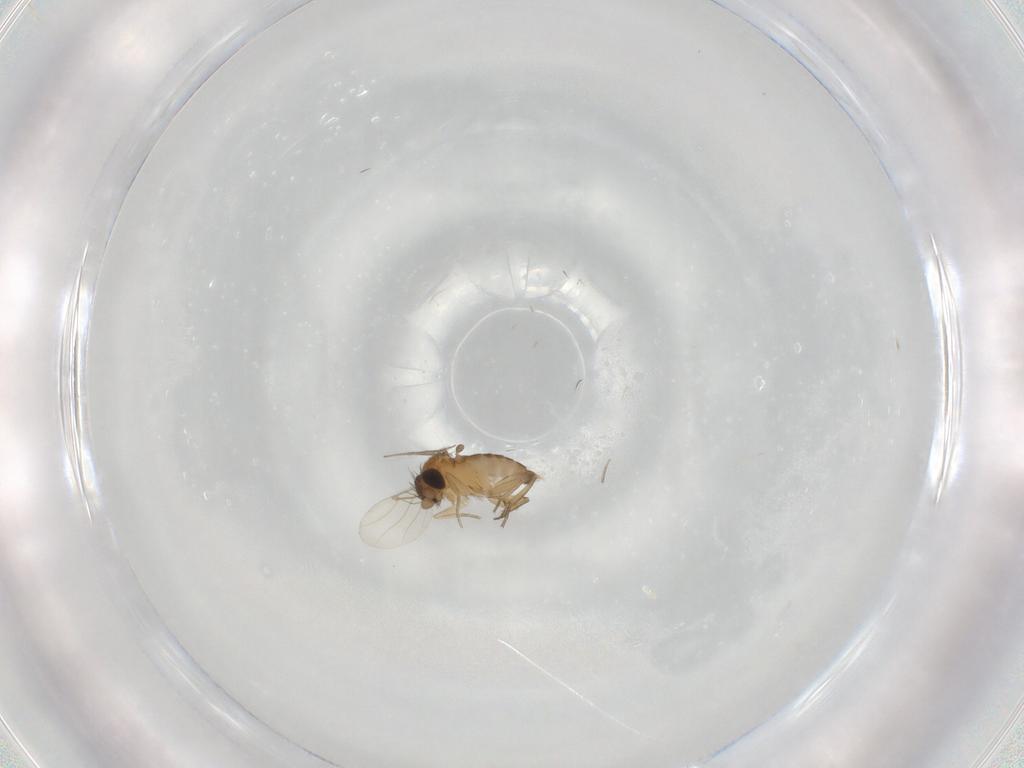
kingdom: Animalia
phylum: Arthropoda
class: Insecta
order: Diptera
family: Phoridae
